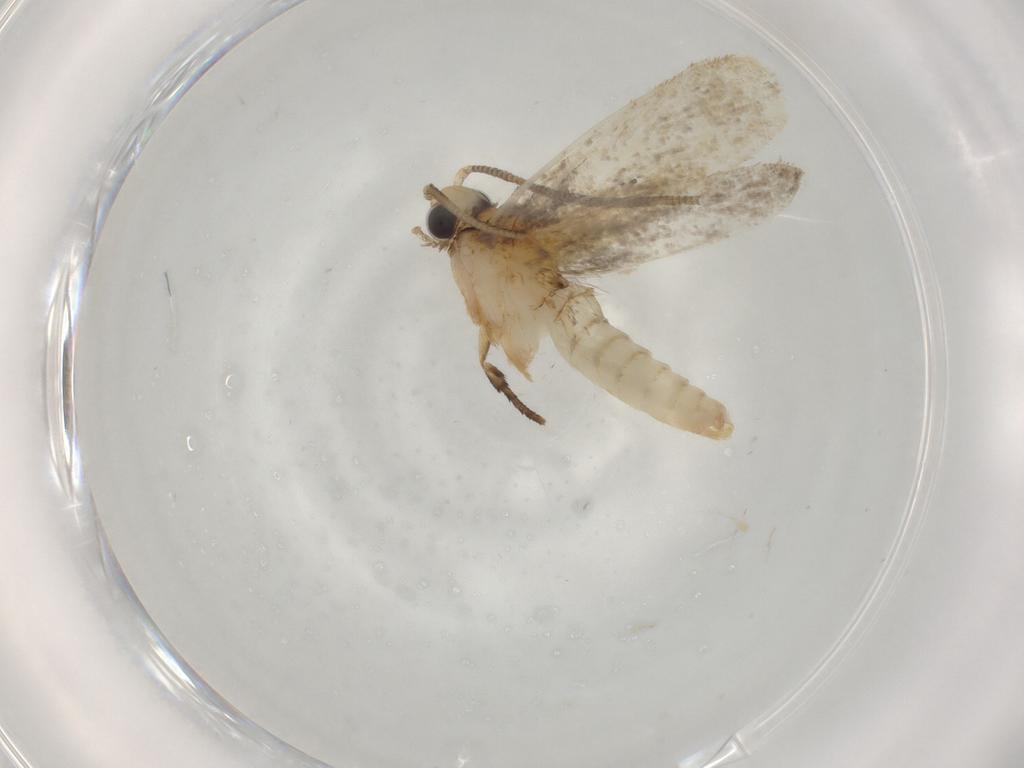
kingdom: Animalia
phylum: Arthropoda
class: Insecta
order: Lepidoptera
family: Tineidae
